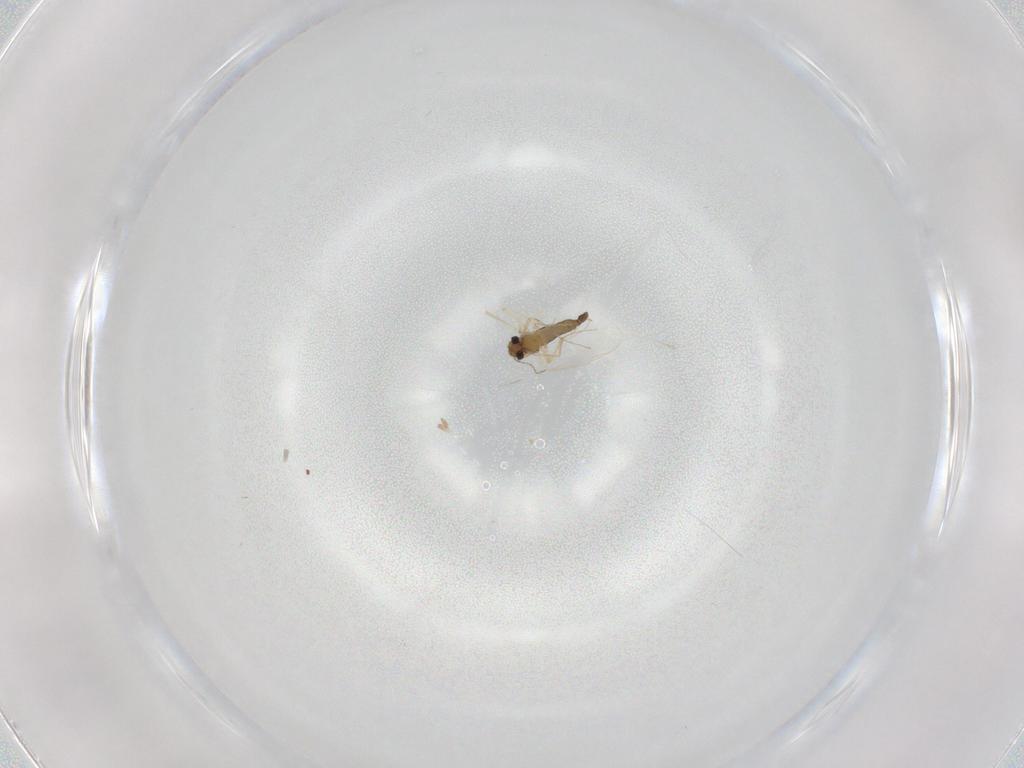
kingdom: Animalia
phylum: Arthropoda
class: Insecta
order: Diptera
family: Chironomidae
